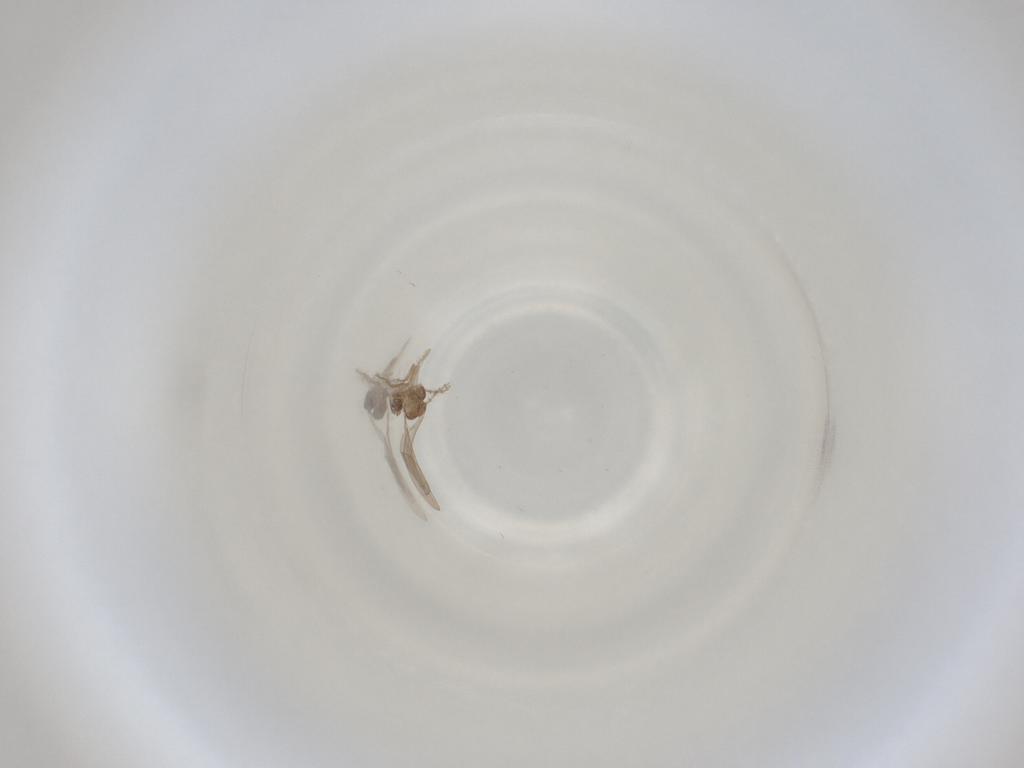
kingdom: Animalia
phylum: Arthropoda
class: Insecta
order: Diptera
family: Cecidomyiidae
